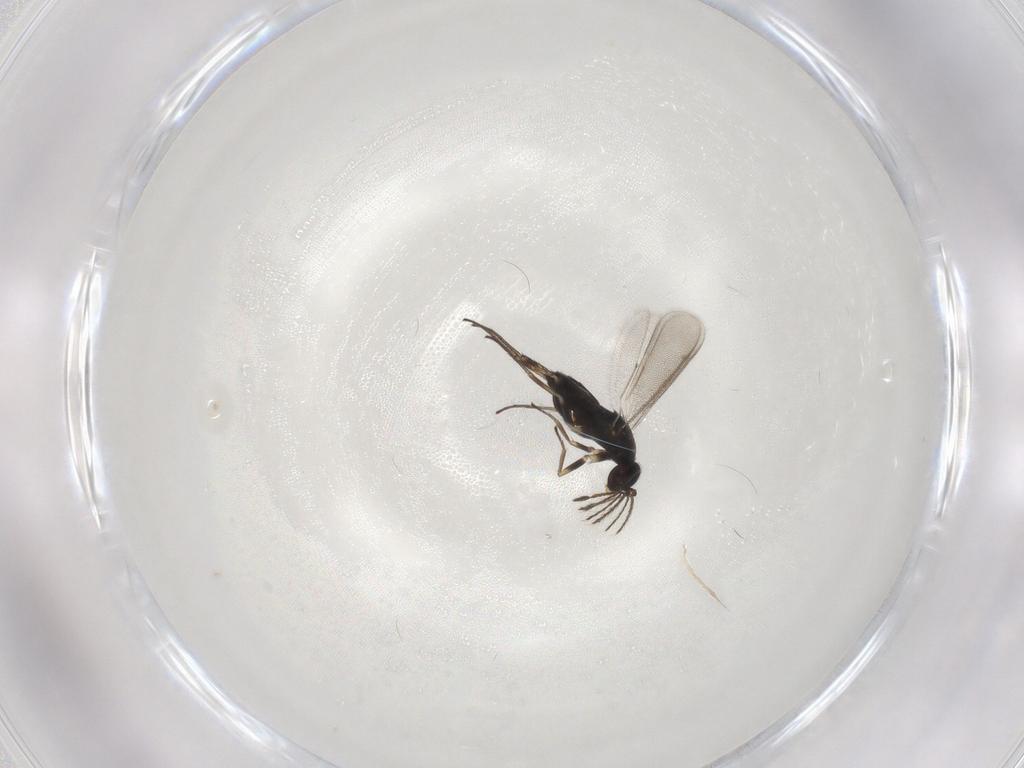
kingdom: Animalia
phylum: Arthropoda
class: Insecta
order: Hymenoptera
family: Eulophidae
